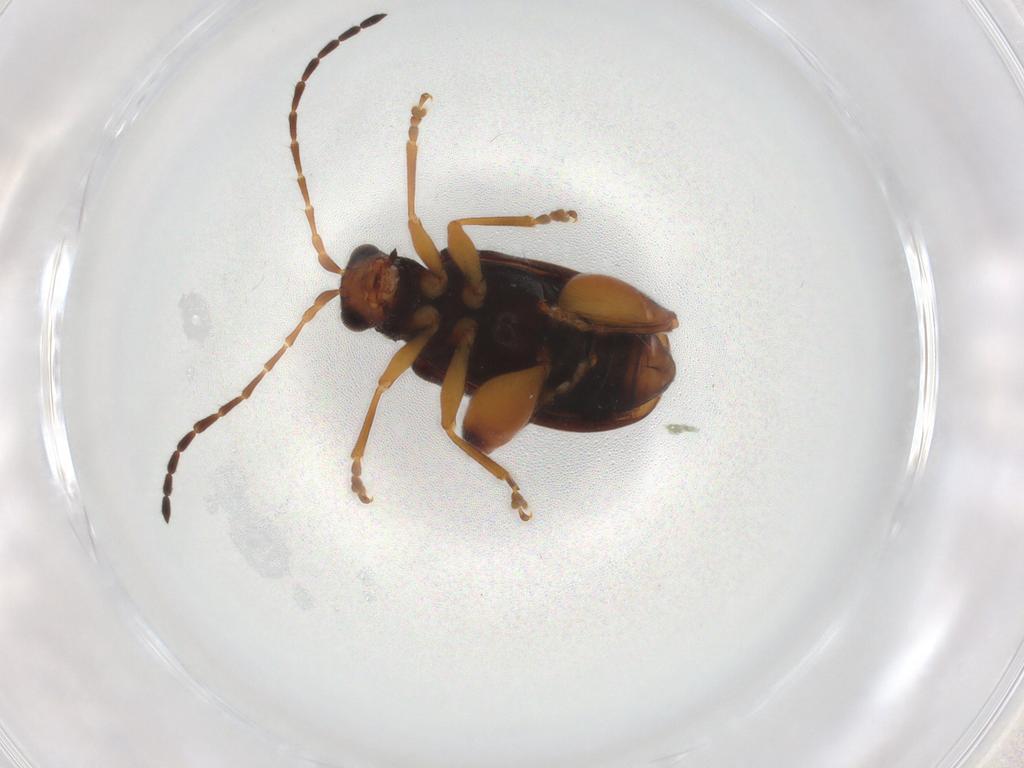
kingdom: Animalia
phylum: Arthropoda
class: Insecta
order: Coleoptera
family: Chrysomelidae
